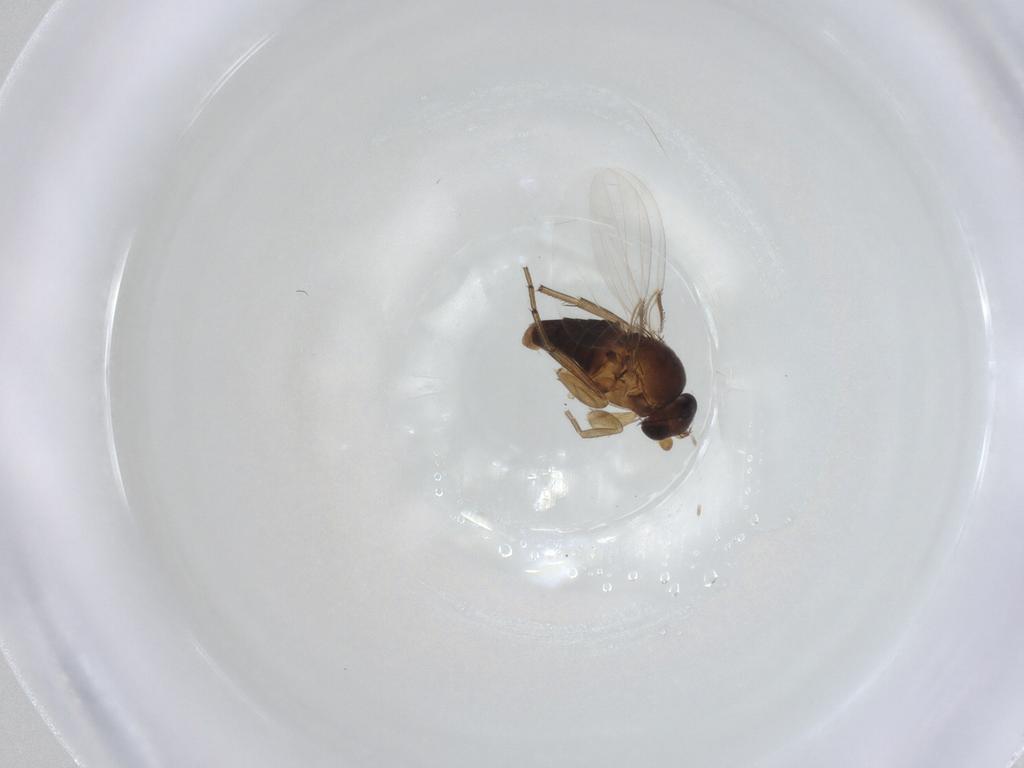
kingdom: Animalia
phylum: Arthropoda
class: Insecta
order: Diptera
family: Phoridae
